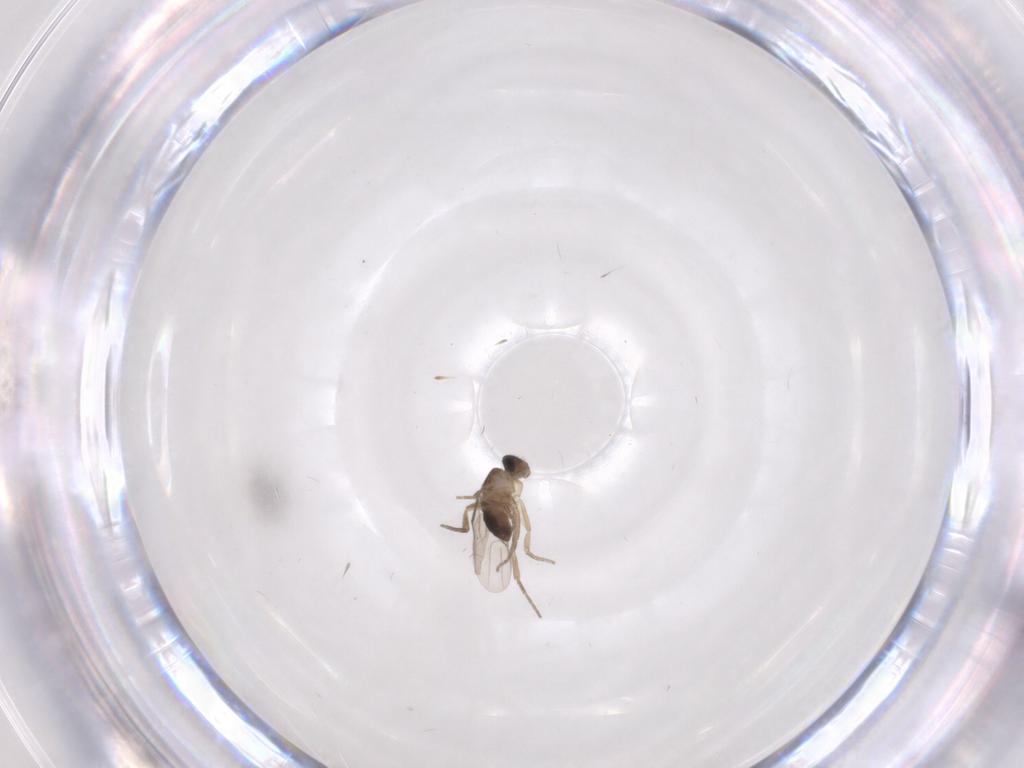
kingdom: Animalia
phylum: Arthropoda
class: Insecta
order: Diptera
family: Cecidomyiidae
